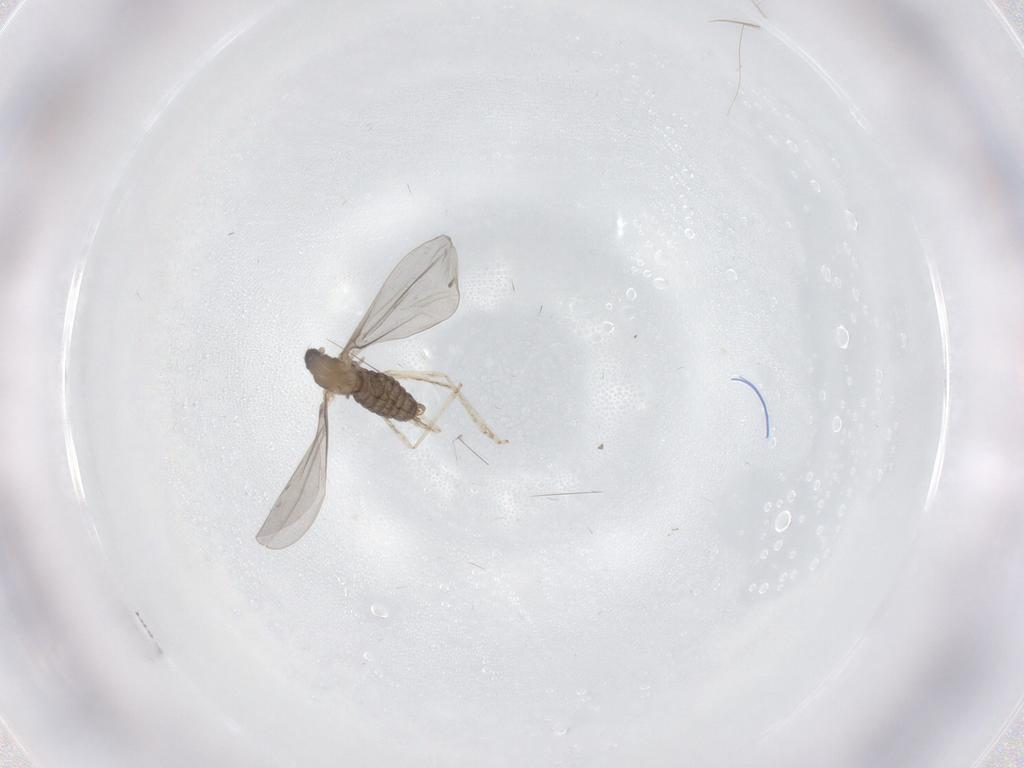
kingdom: Animalia
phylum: Arthropoda
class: Insecta
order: Diptera
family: Cecidomyiidae
